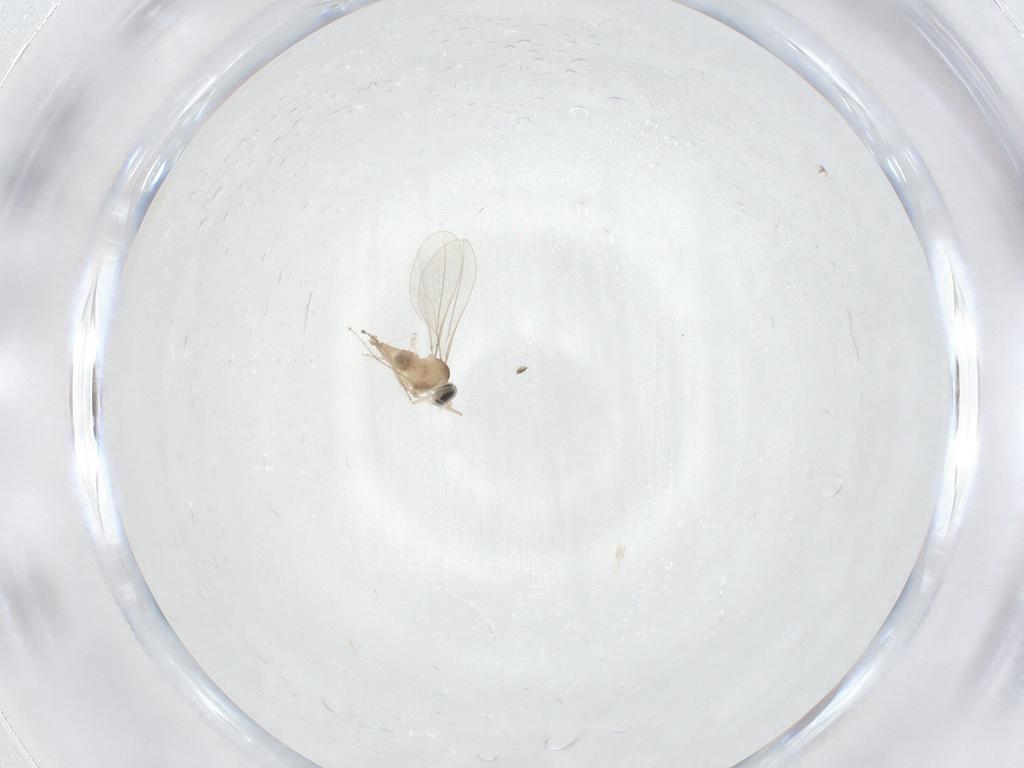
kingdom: Animalia
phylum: Arthropoda
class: Insecta
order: Diptera
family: Cecidomyiidae
